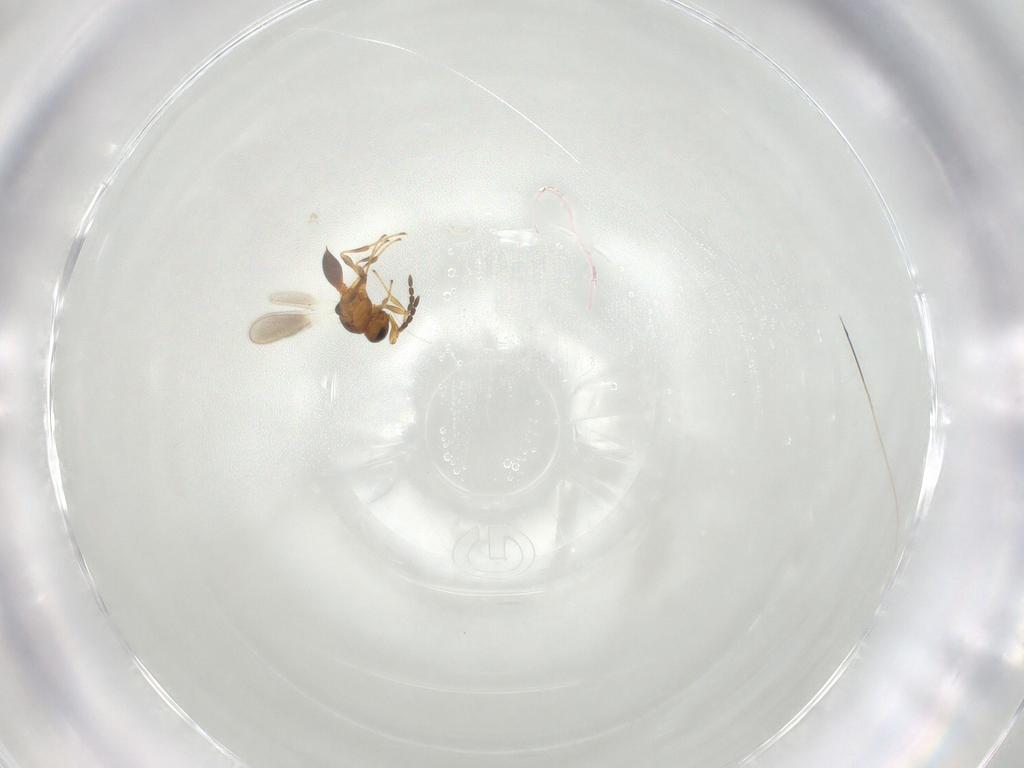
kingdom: Animalia
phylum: Arthropoda
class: Insecta
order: Hymenoptera
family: Platygastridae
